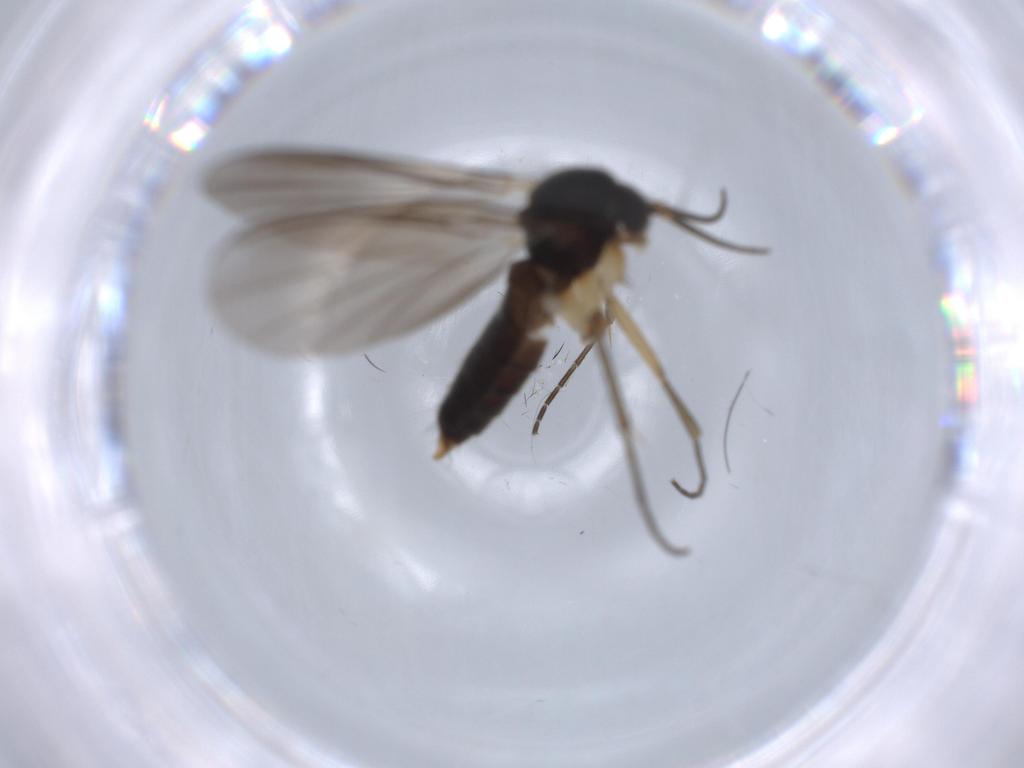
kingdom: Animalia
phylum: Arthropoda
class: Insecta
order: Diptera
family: Mycetophilidae
